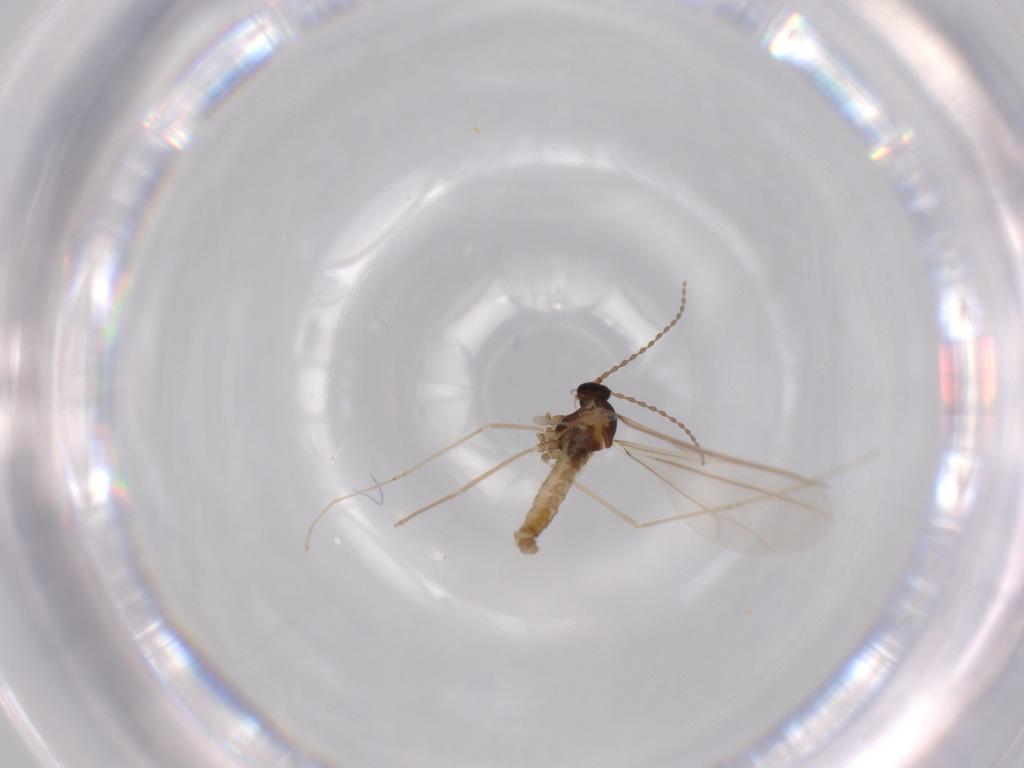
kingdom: Animalia
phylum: Arthropoda
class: Insecta
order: Diptera
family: Cecidomyiidae
